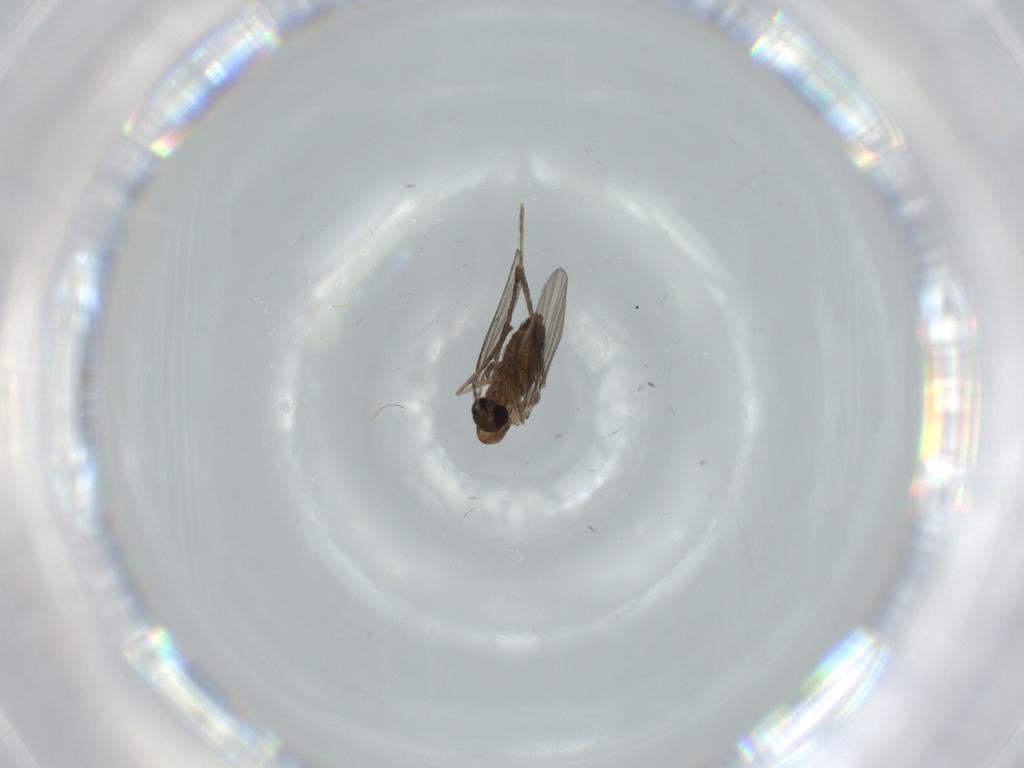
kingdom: Animalia
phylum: Arthropoda
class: Insecta
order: Diptera
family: Psychodidae
